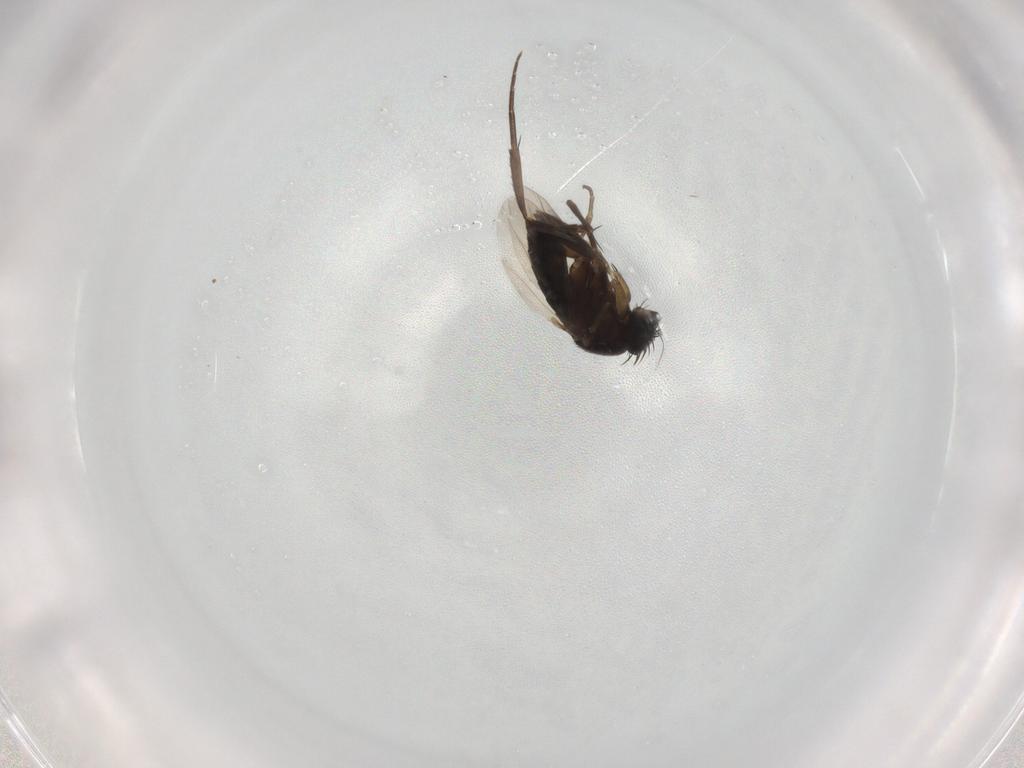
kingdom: Animalia
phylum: Arthropoda
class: Insecta
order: Diptera
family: Phoridae
